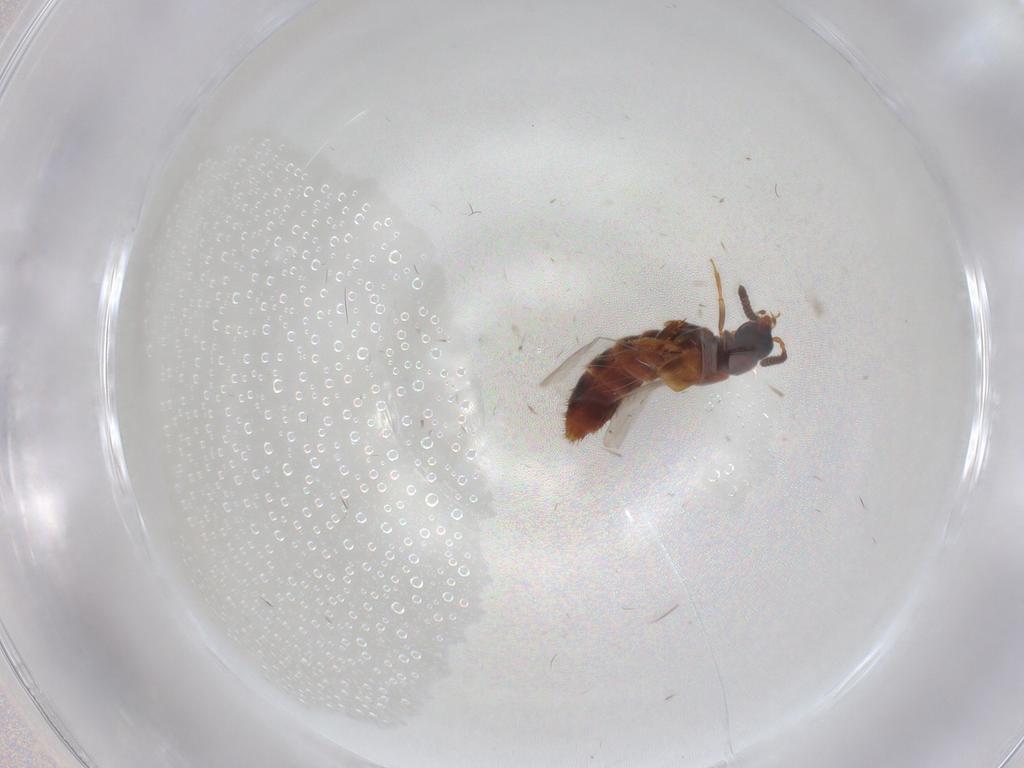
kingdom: Animalia
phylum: Arthropoda
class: Insecta
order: Coleoptera
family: Staphylinidae
